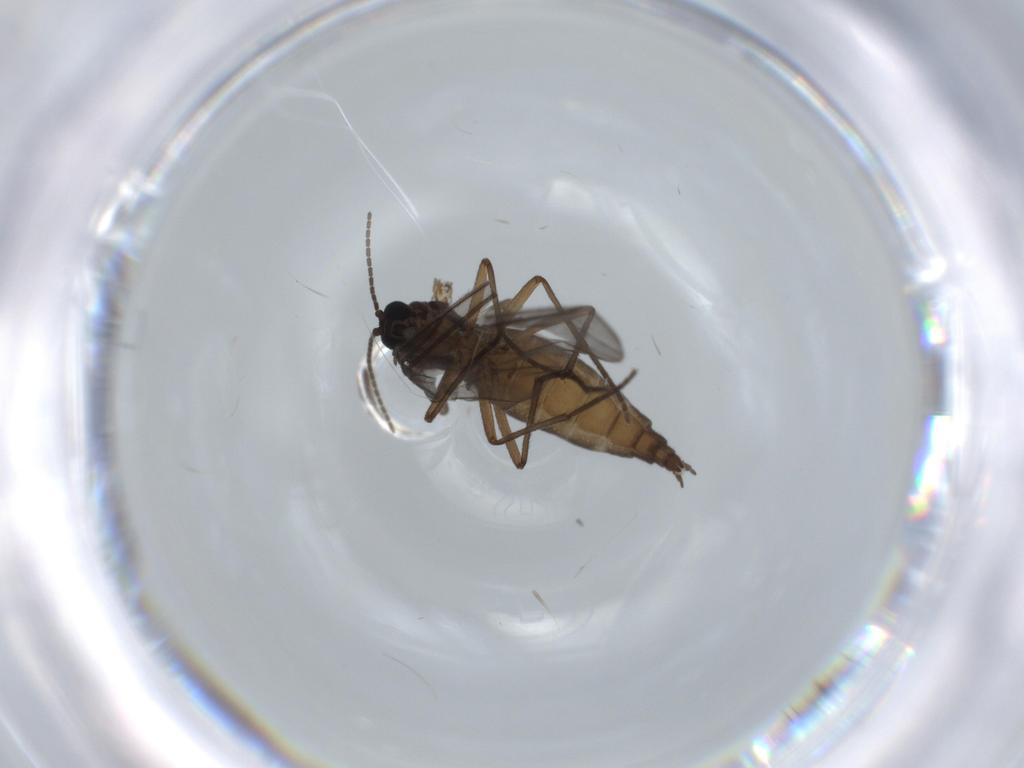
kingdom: Animalia
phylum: Arthropoda
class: Insecta
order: Diptera
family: Sciaridae
